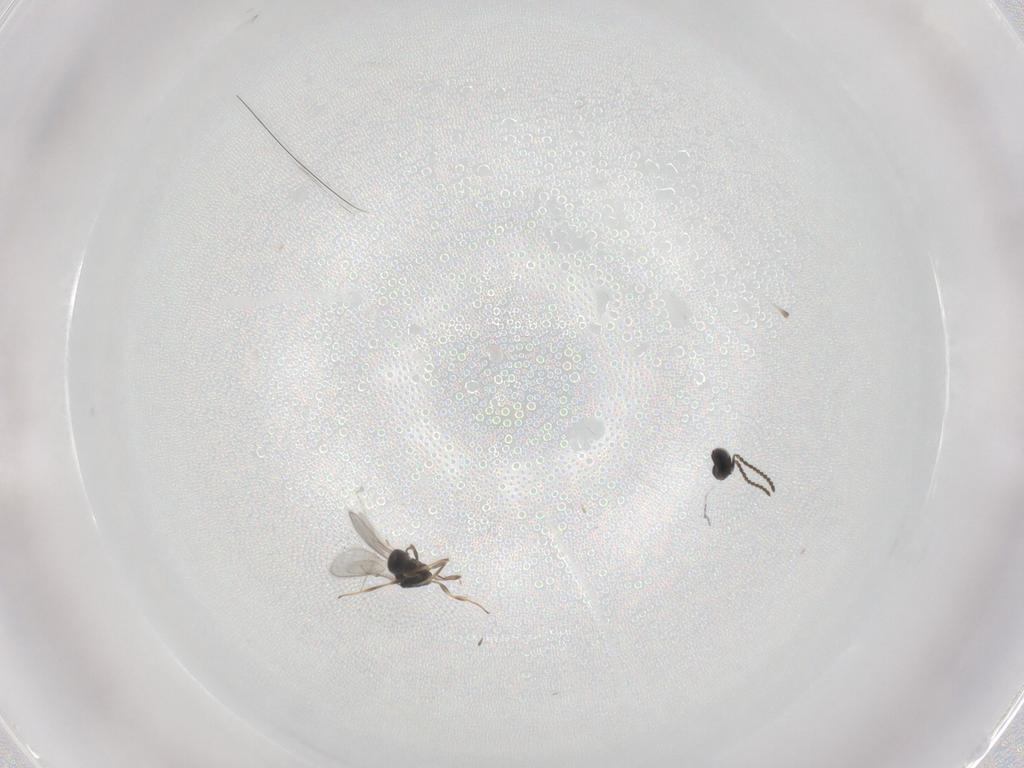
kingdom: Animalia
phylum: Arthropoda
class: Insecta
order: Hymenoptera
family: Scelionidae
